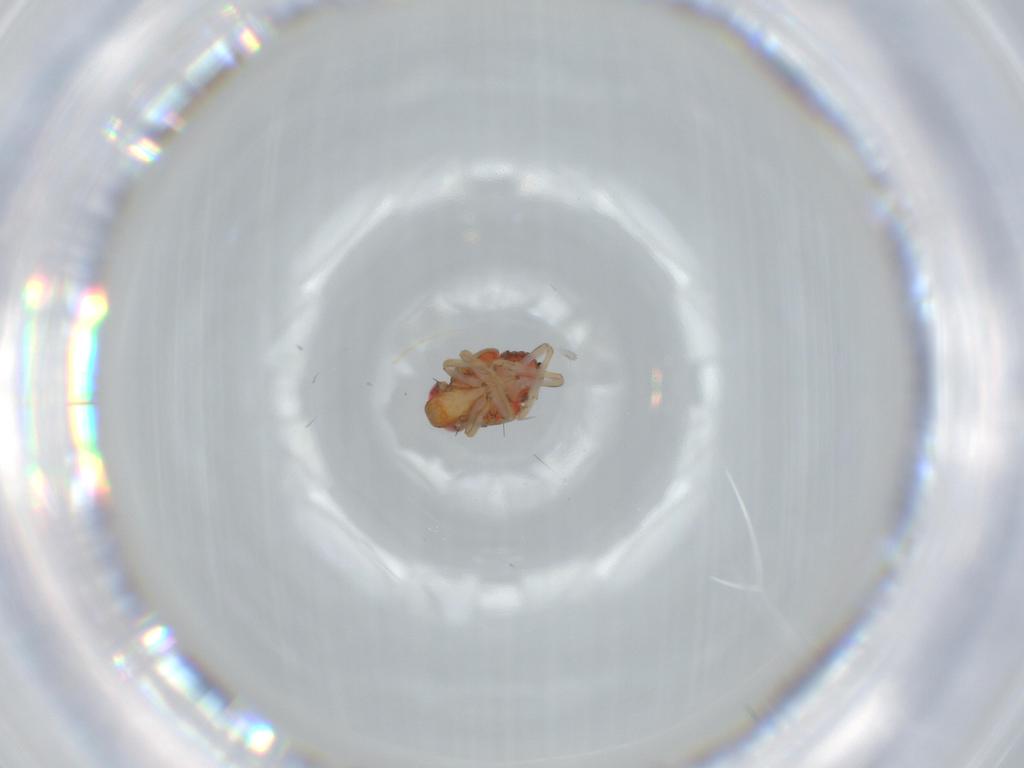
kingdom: Animalia
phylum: Arthropoda
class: Insecta
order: Hemiptera
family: Issidae
